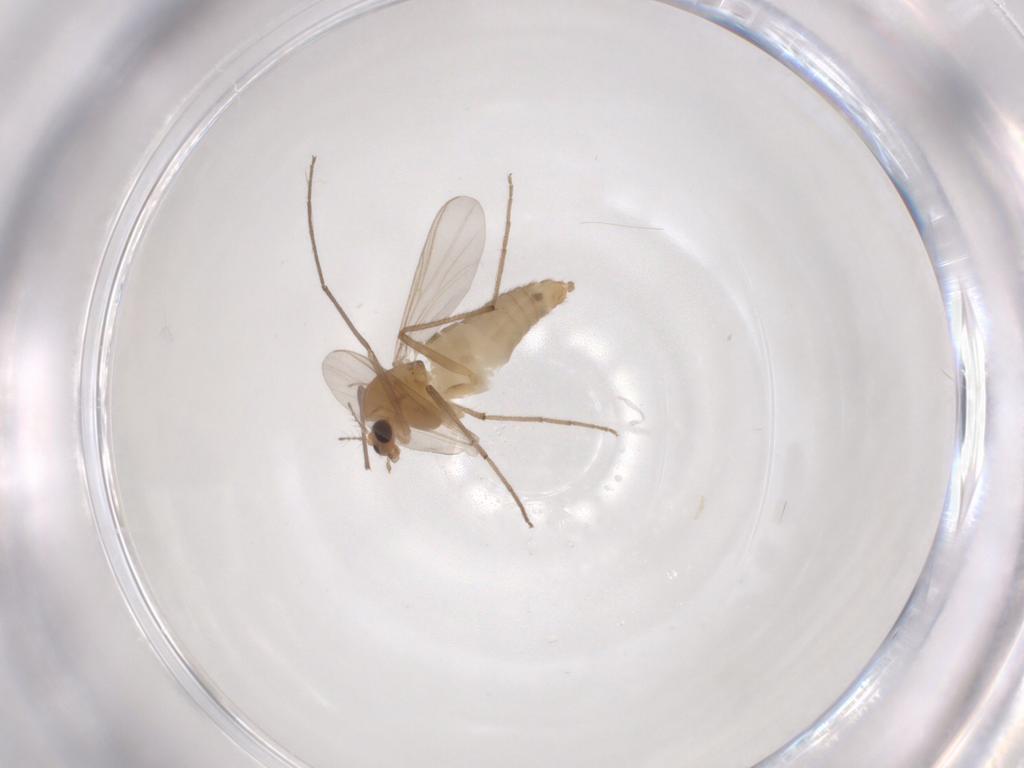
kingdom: Animalia
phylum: Arthropoda
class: Insecta
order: Diptera
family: Chironomidae
